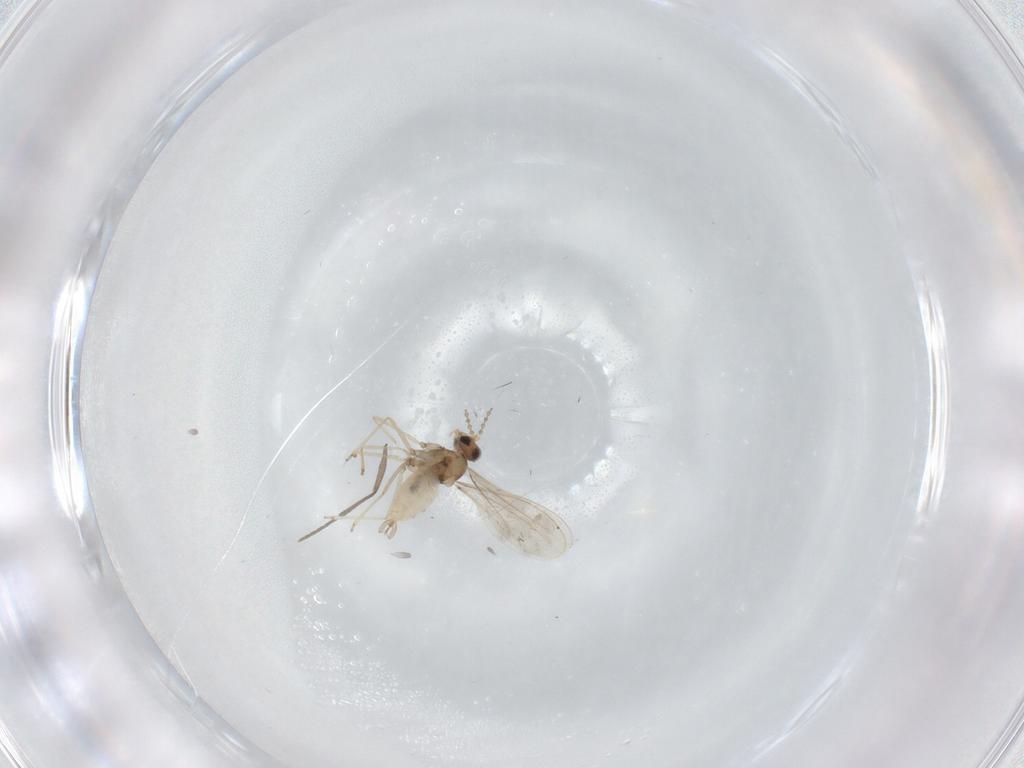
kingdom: Animalia
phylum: Arthropoda
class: Insecta
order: Diptera
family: Cecidomyiidae
